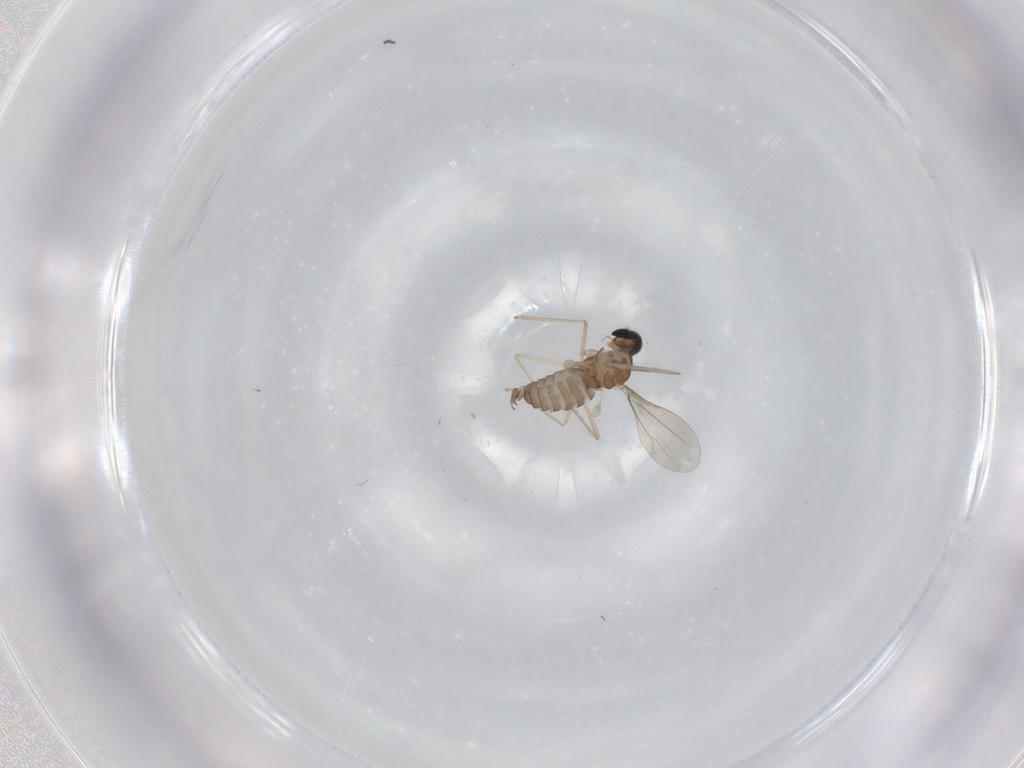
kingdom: Animalia
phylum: Arthropoda
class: Insecta
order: Diptera
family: Cecidomyiidae
